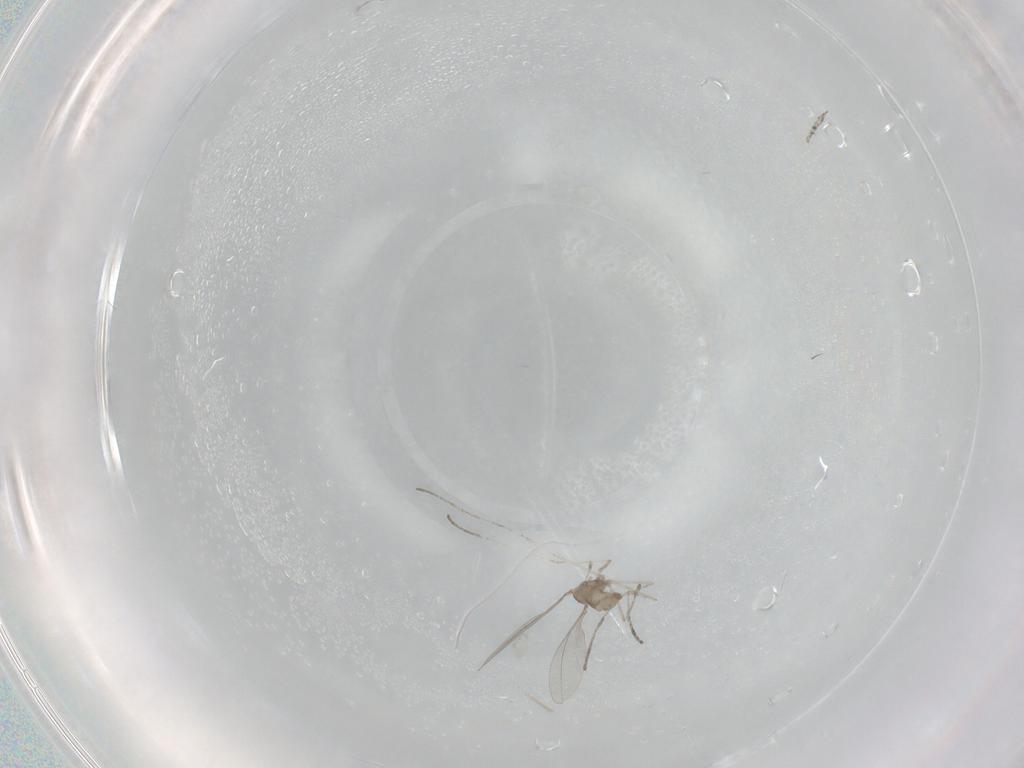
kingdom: Animalia
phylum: Arthropoda
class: Insecta
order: Diptera
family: Cecidomyiidae
